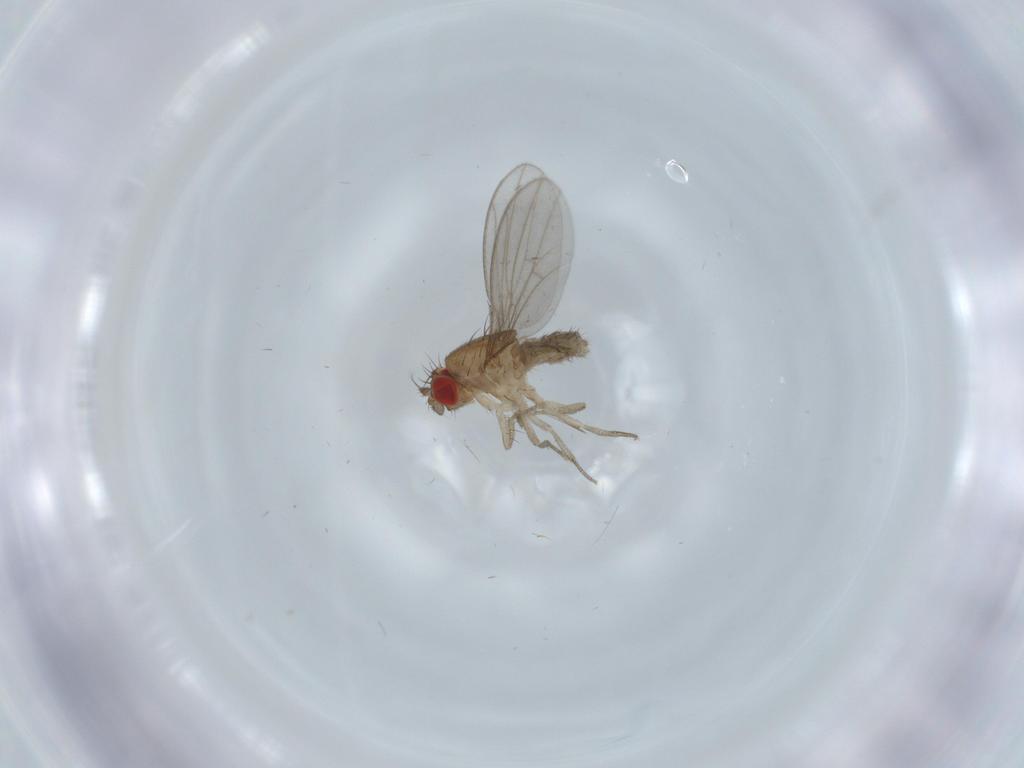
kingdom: Animalia
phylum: Arthropoda
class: Insecta
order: Diptera
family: Drosophilidae
